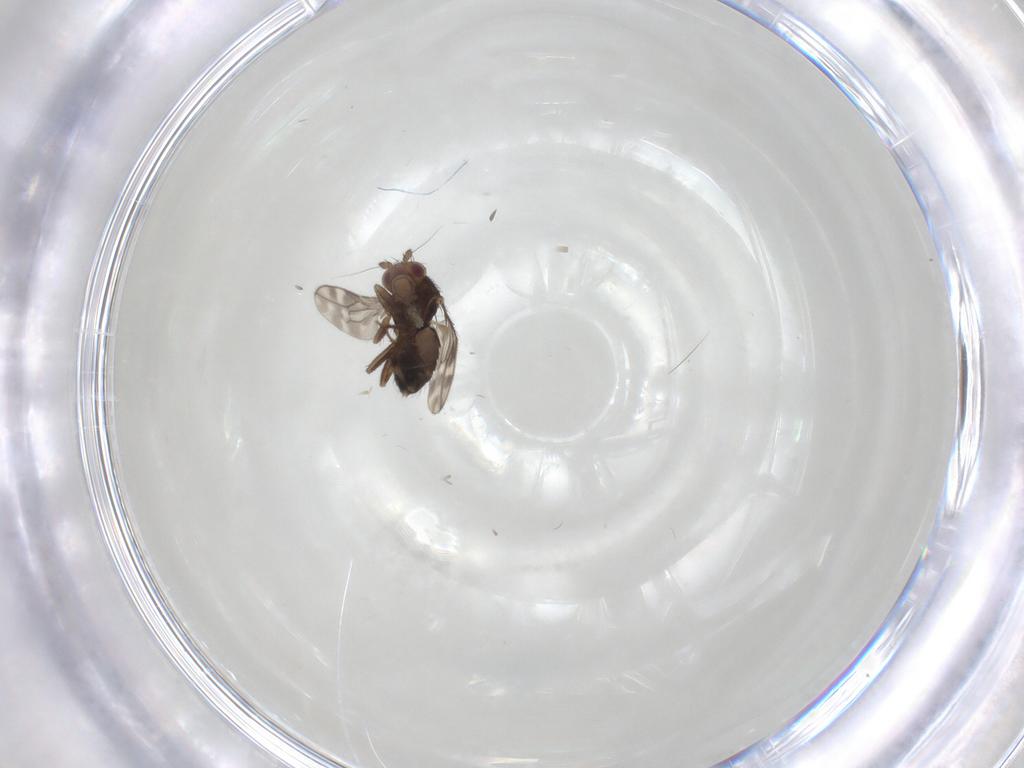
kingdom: Animalia
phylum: Arthropoda
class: Insecta
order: Diptera
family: Sphaeroceridae
